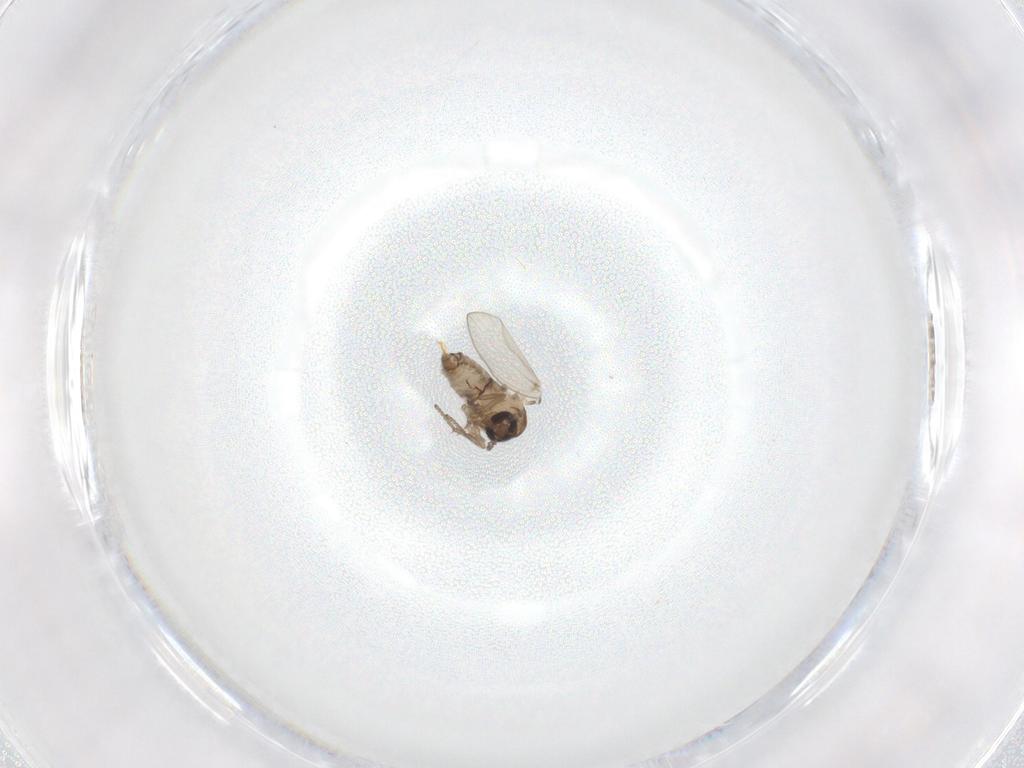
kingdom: Animalia
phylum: Arthropoda
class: Insecta
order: Diptera
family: Psychodidae
